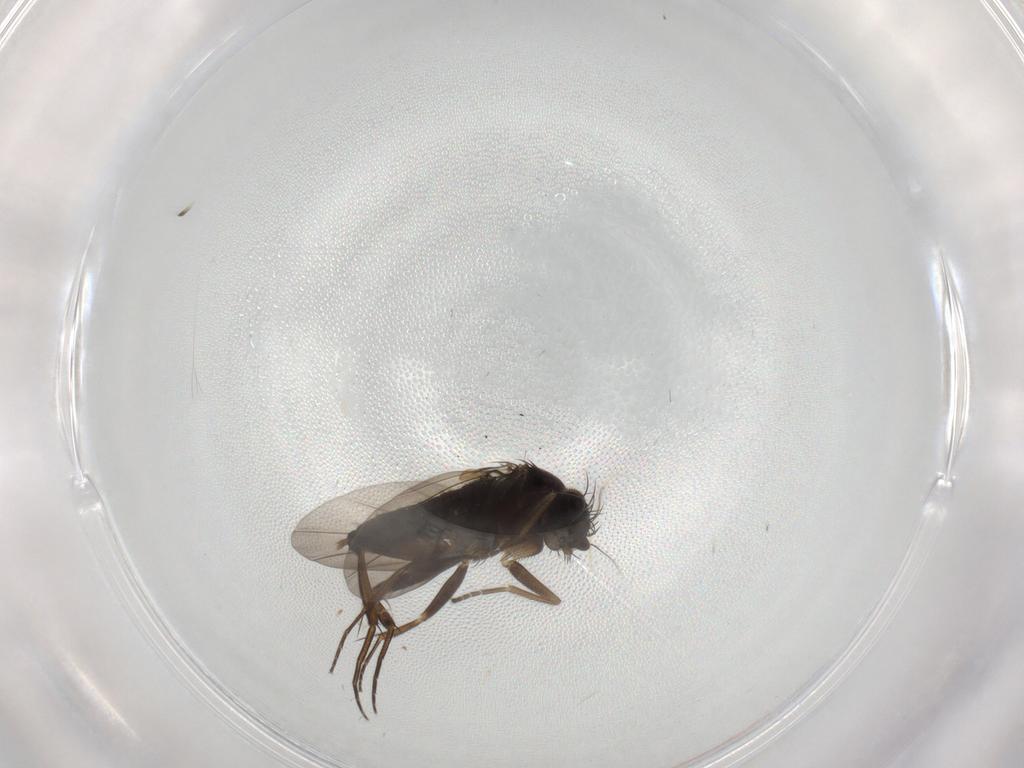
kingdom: Animalia
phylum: Arthropoda
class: Insecta
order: Diptera
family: Phoridae
